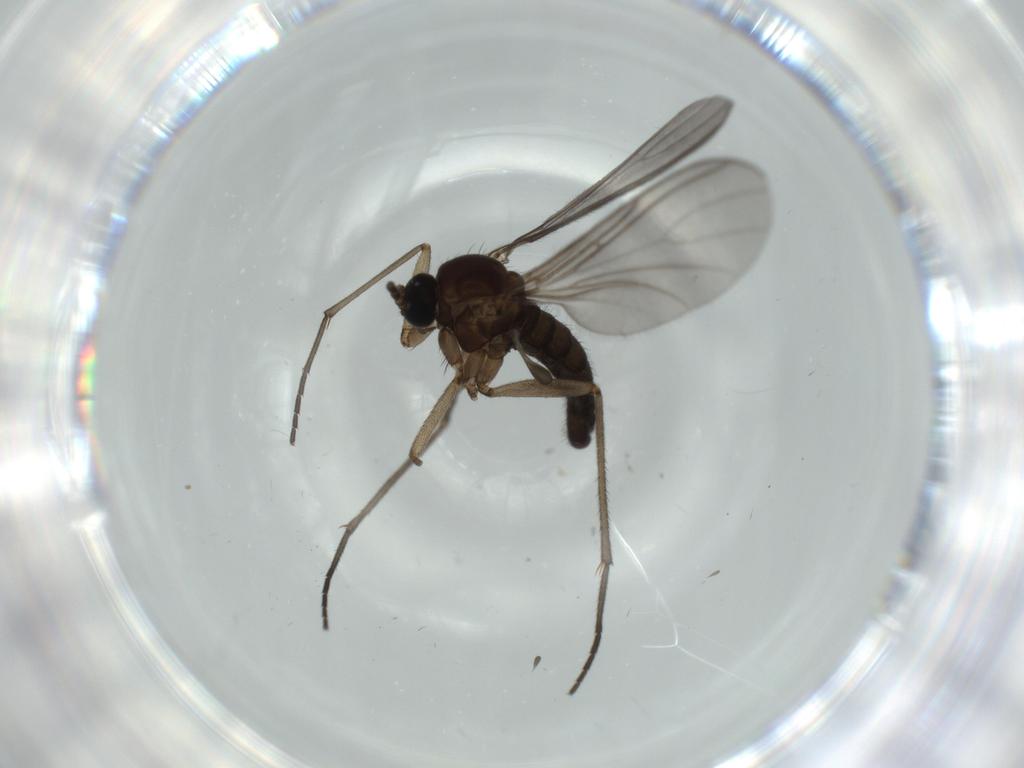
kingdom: Animalia
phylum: Arthropoda
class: Insecta
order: Diptera
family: Sciaridae
